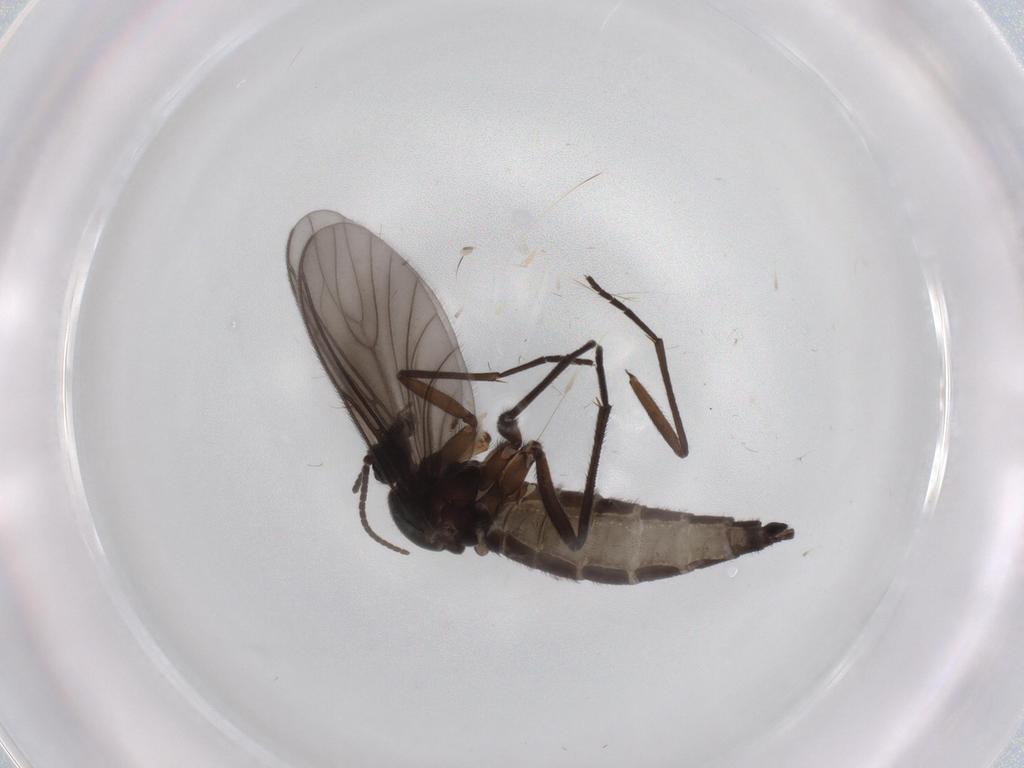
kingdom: Animalia
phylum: Arthropoda
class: Insecta
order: Diptera
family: Sciaridae
